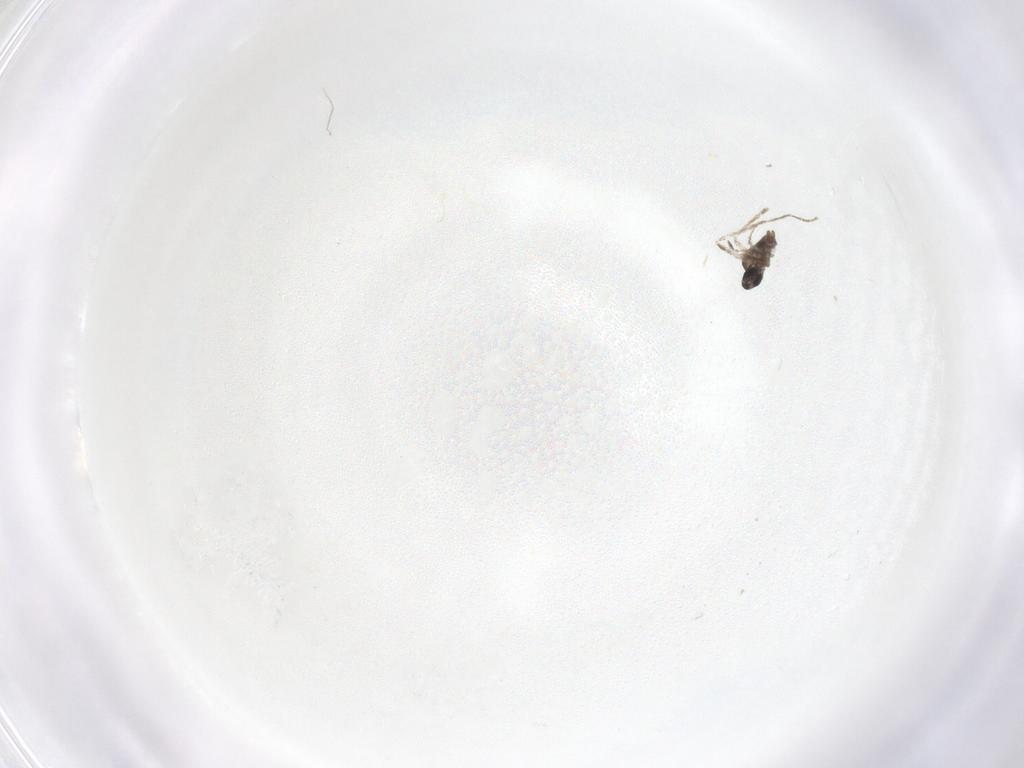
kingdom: Animalia
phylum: Arthropoda
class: Insecta
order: Diptera
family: Cecidomyiidae
